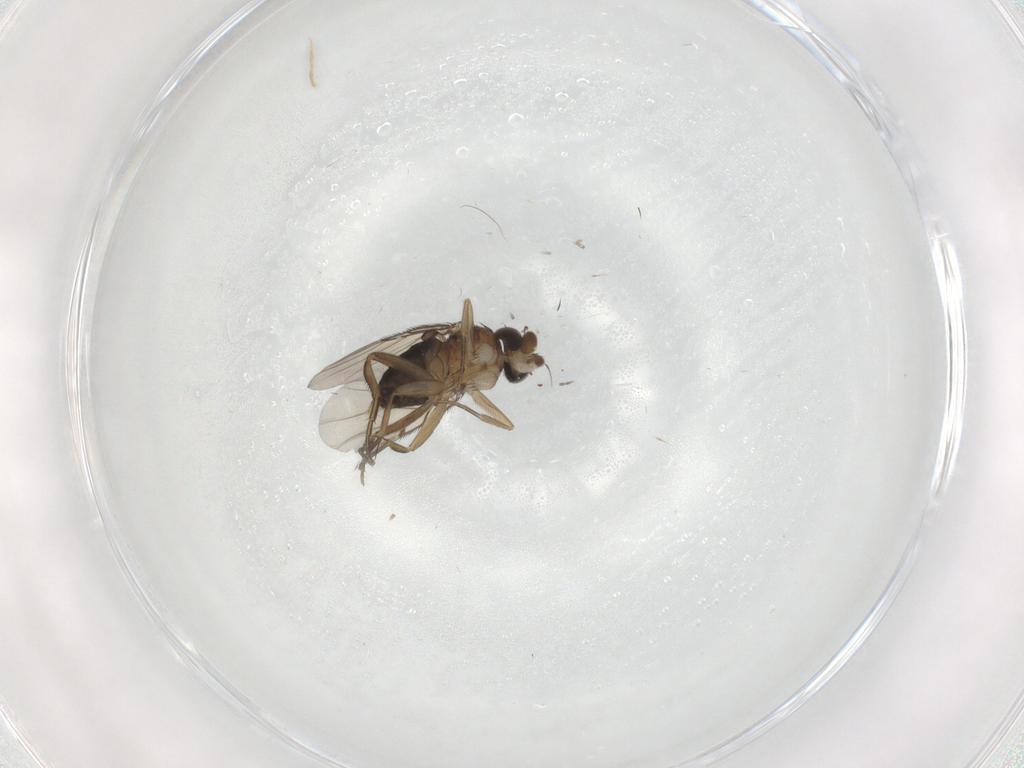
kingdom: Animalia
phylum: Arthropoda
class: Insecta
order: Diptera
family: Phoridae
